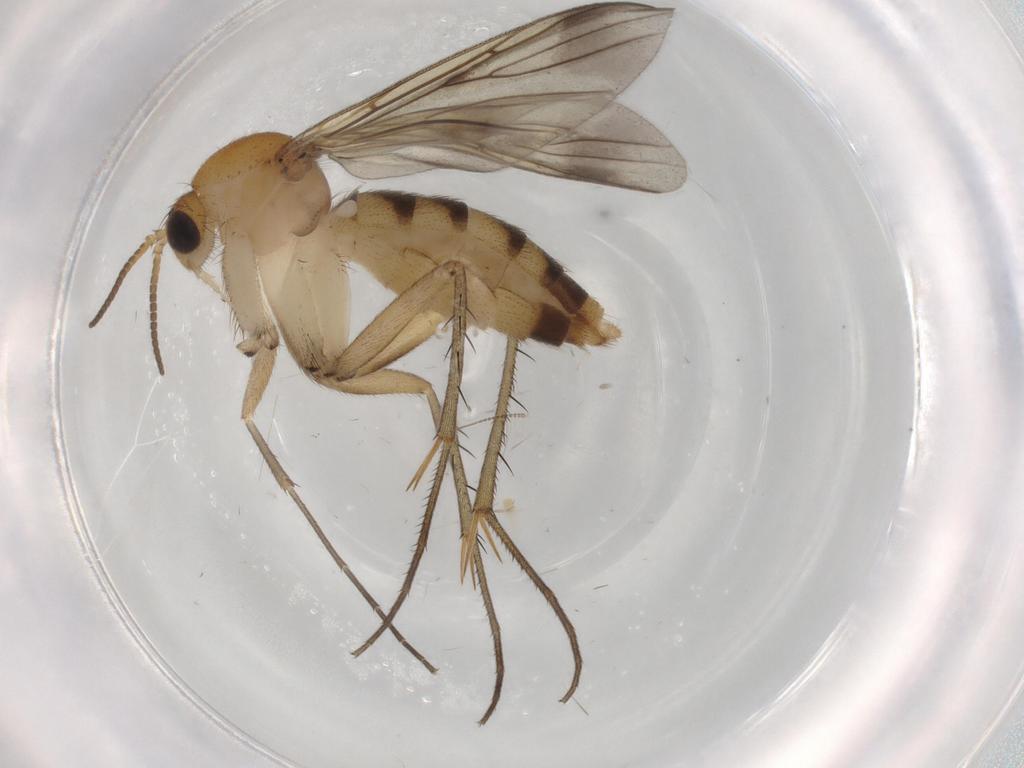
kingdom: Animalia
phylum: Arthropoda
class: Insecta
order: Diptera
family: Mycetophilidae
